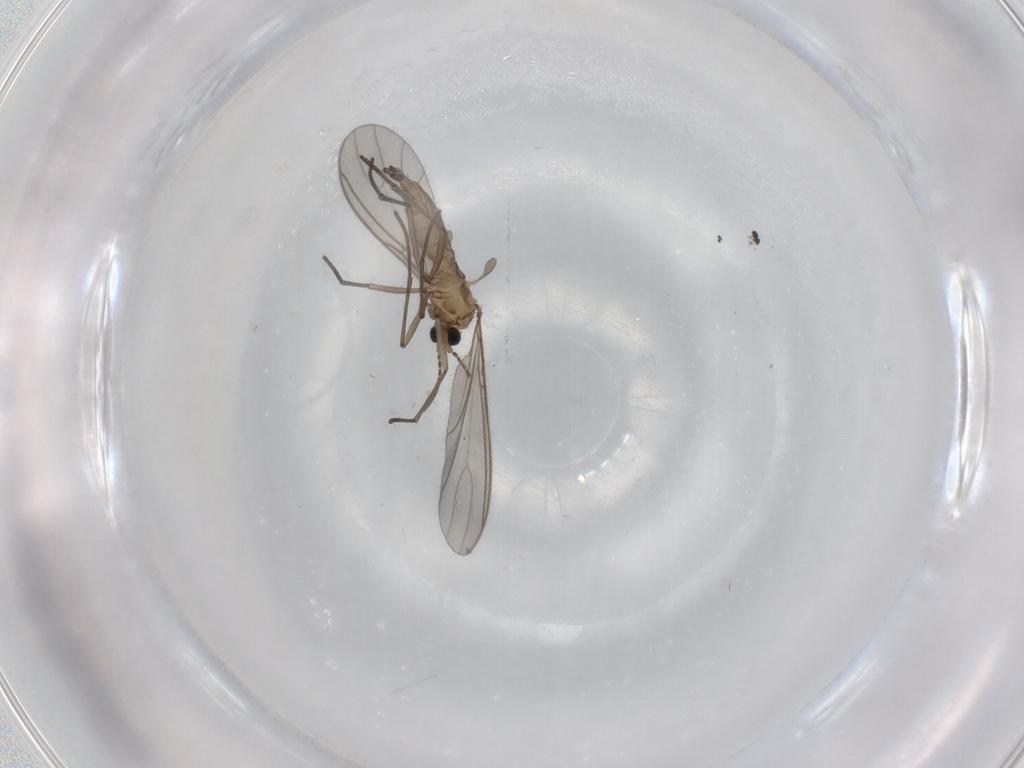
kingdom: Animalia
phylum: Arthropoda
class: Insecta
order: Diptera
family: Sciaridae
